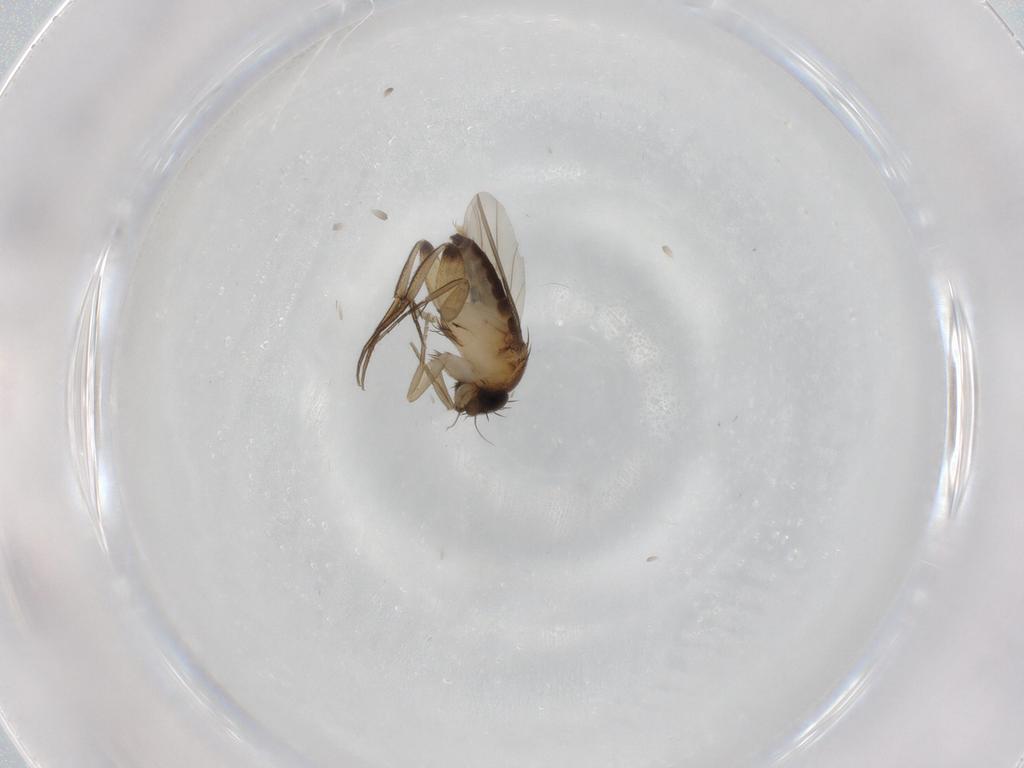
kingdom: Animalia
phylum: Arthropoda
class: Insecta
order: Diptera
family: Phoridae
